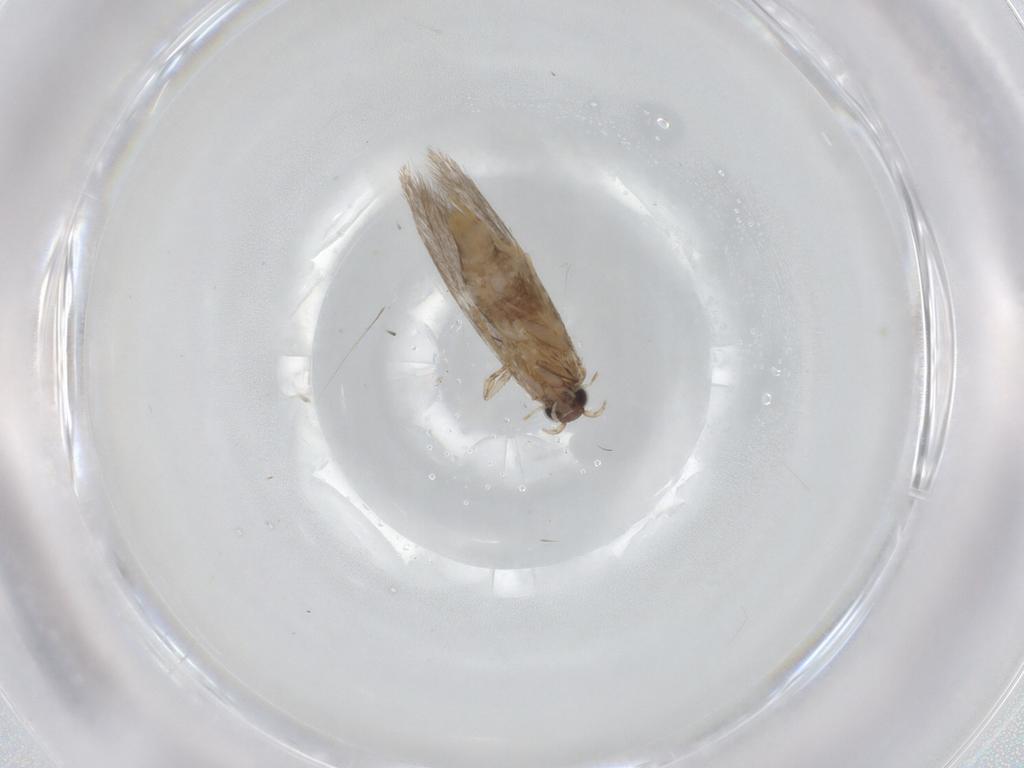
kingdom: Animalia
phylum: Arthropoda
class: Insecta
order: Lepidoptera
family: Tineidae
